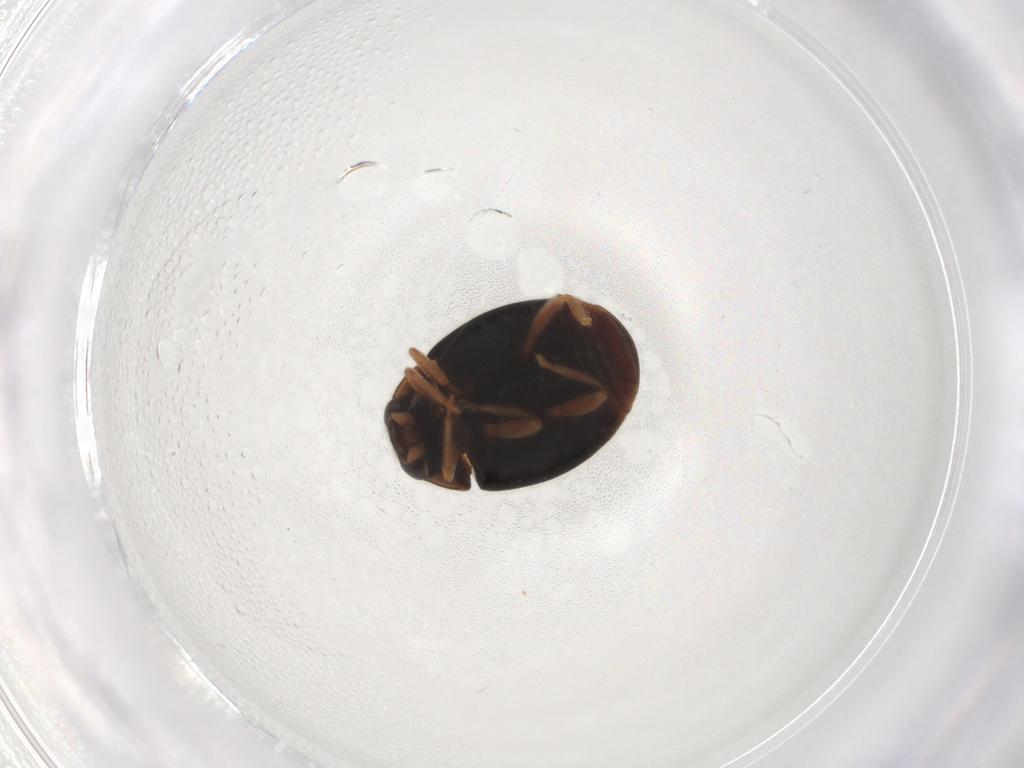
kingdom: Animalia
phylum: Arthropoda
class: Insecta
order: Coleoptera
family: Coccinellidae
